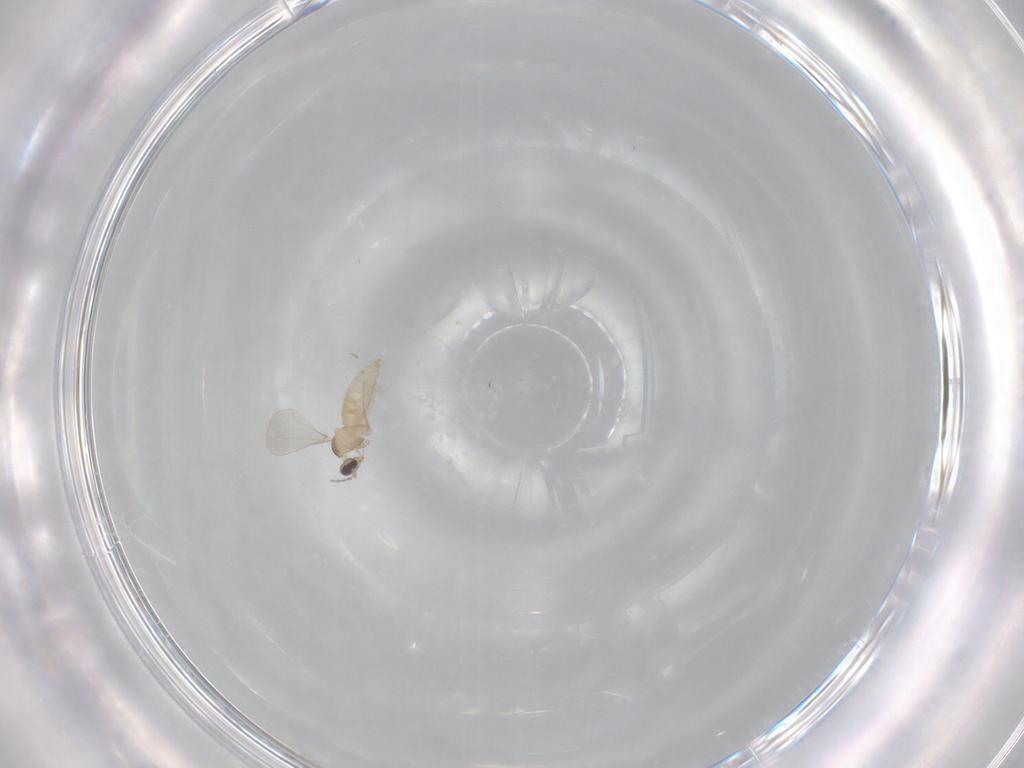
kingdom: Animalia
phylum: Arthropoda
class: Insecta
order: Diptera
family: Cecidomyiidae
